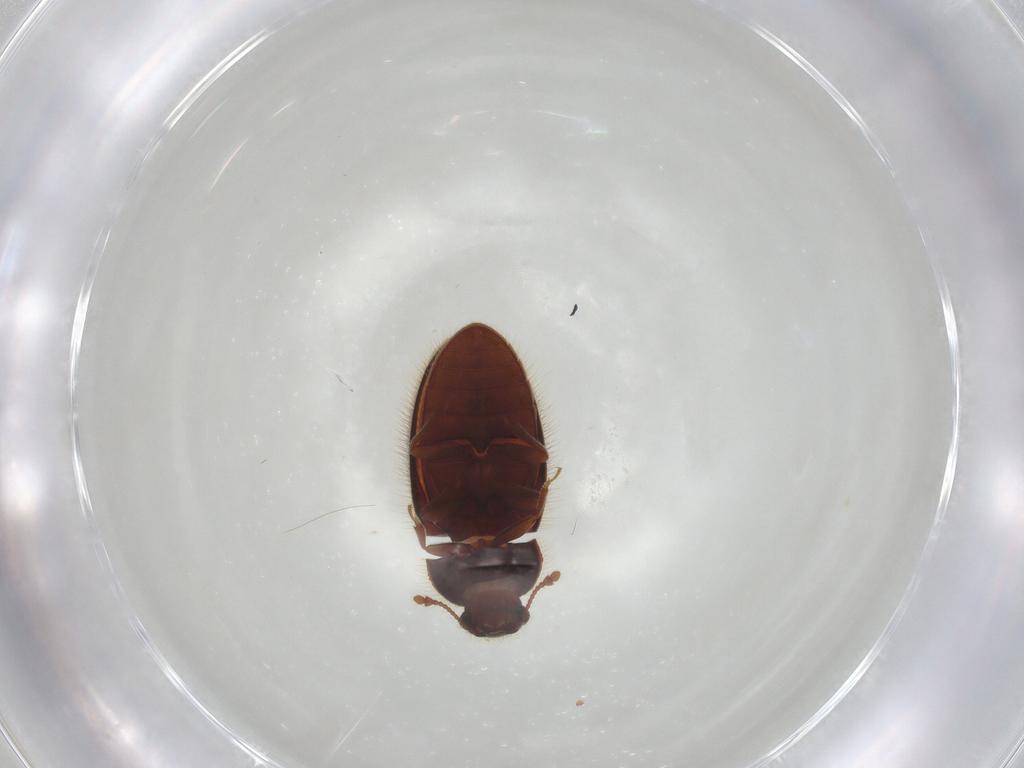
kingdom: Animalia
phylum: Arthropoda
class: Insecta
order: Coleoptera
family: Biphyllidae
